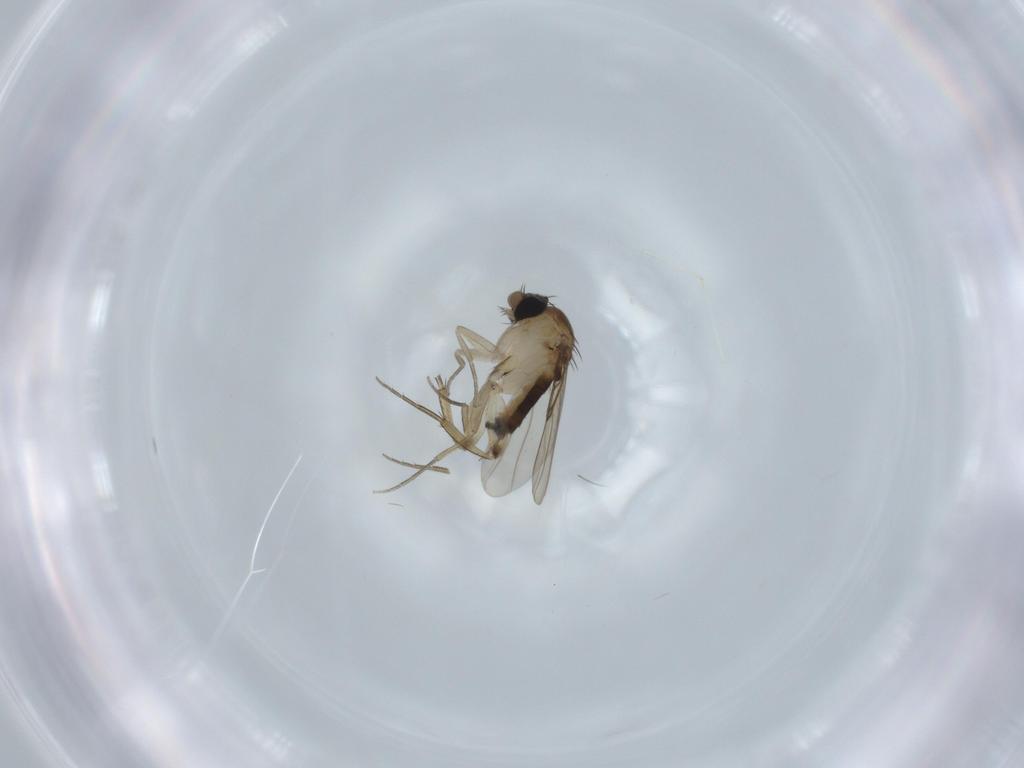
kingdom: Animalia
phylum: Arthropoda
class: Insecta
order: Diptera
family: Phoridae
